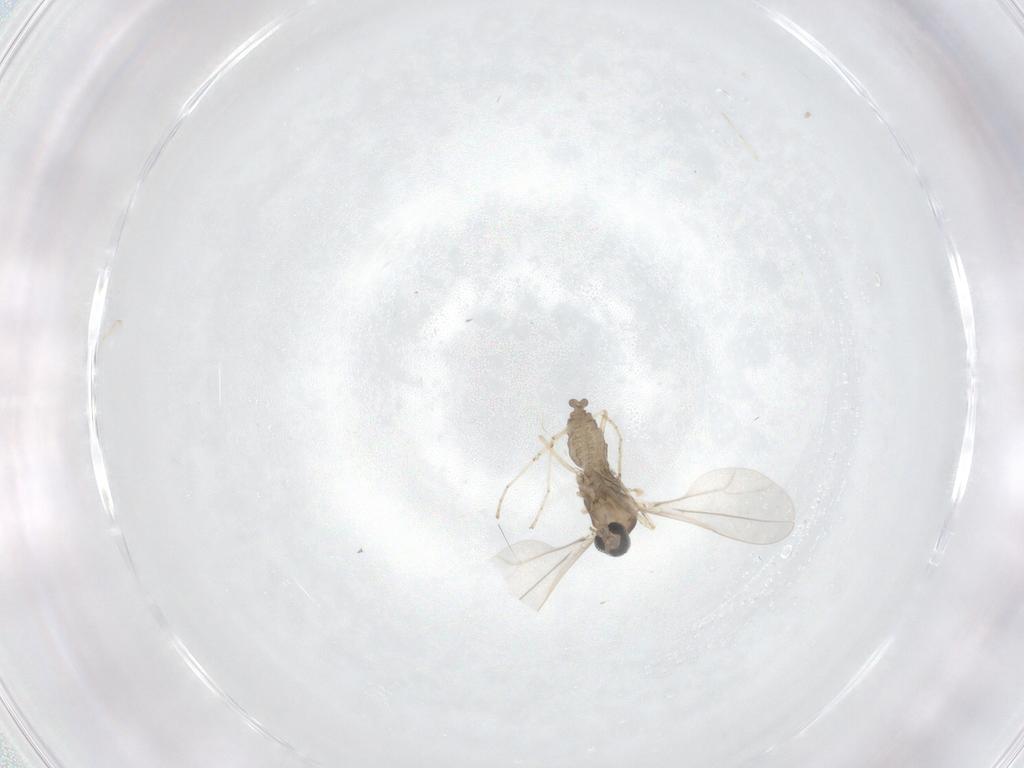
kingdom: Animalia
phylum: Arthropoda
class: Insecta
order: Diptera
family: Cecidomyiidae
